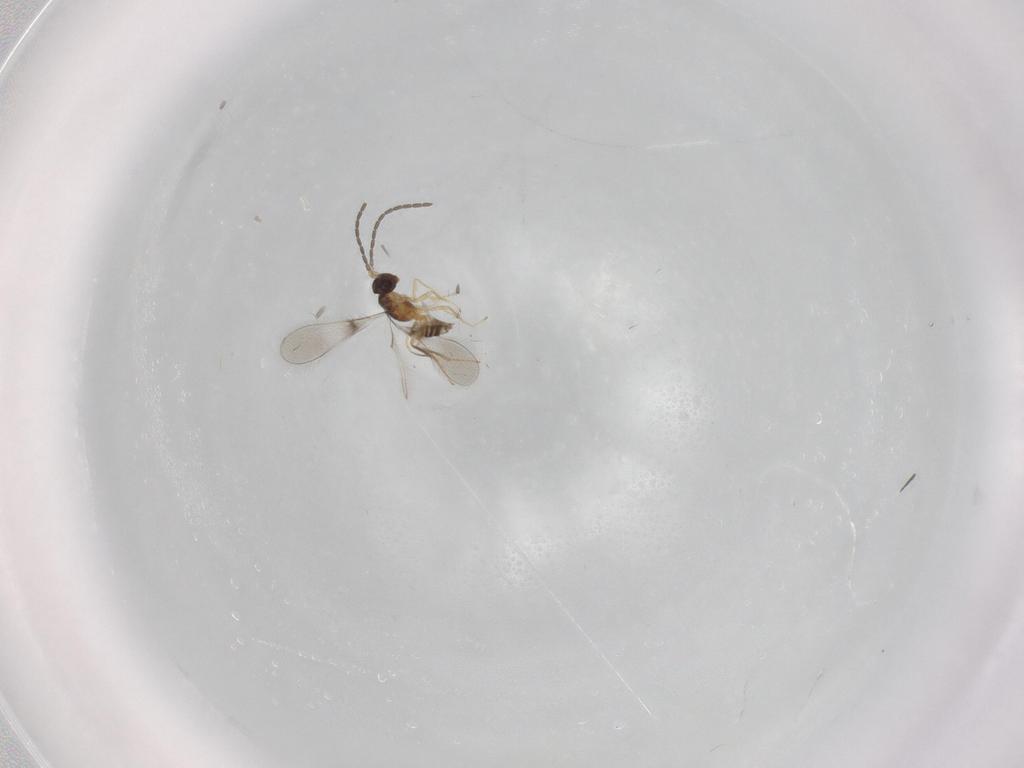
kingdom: Animalia
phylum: Arthropoda
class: Insecta
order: Hymenoptera
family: Mymaridae
